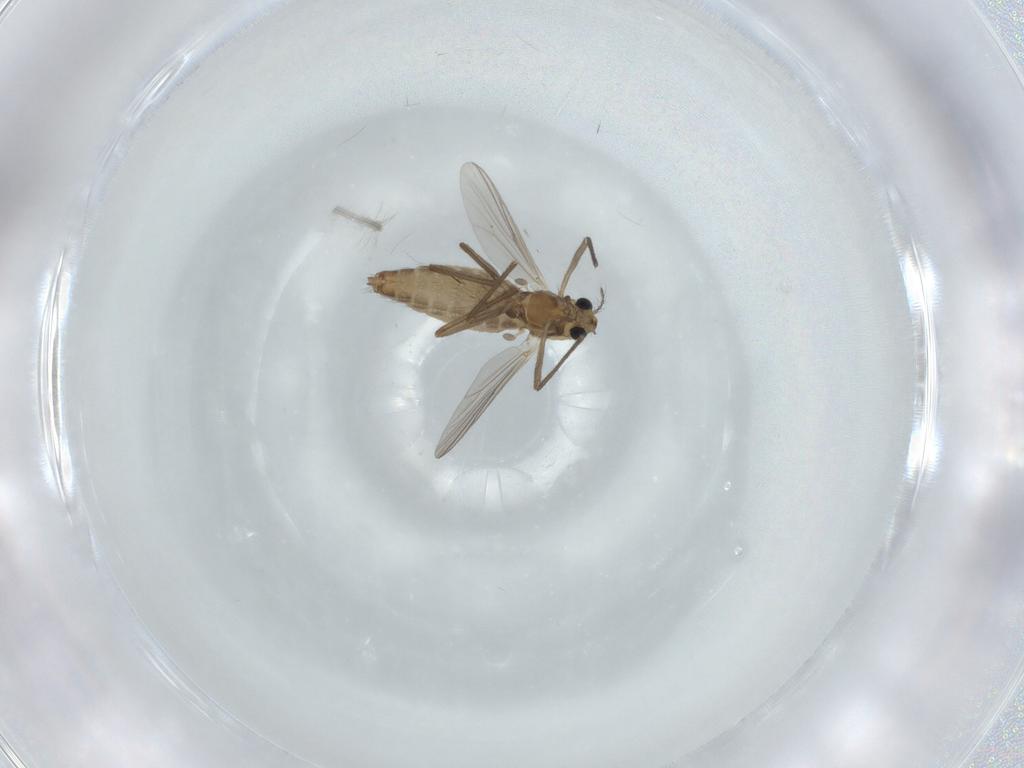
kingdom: Animalia
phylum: Arthropoda
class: Insecta
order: Diptera
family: Chironomidae
